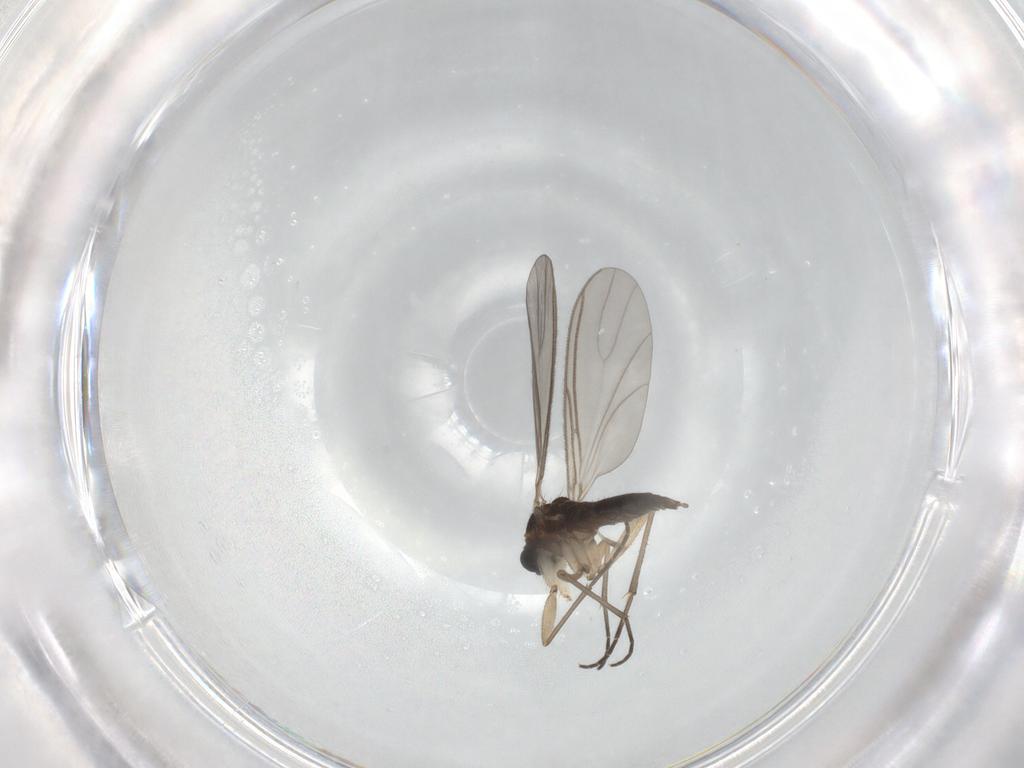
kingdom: Animalia
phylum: Arthropoda
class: Insecta
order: Diptera
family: Sciaridae
